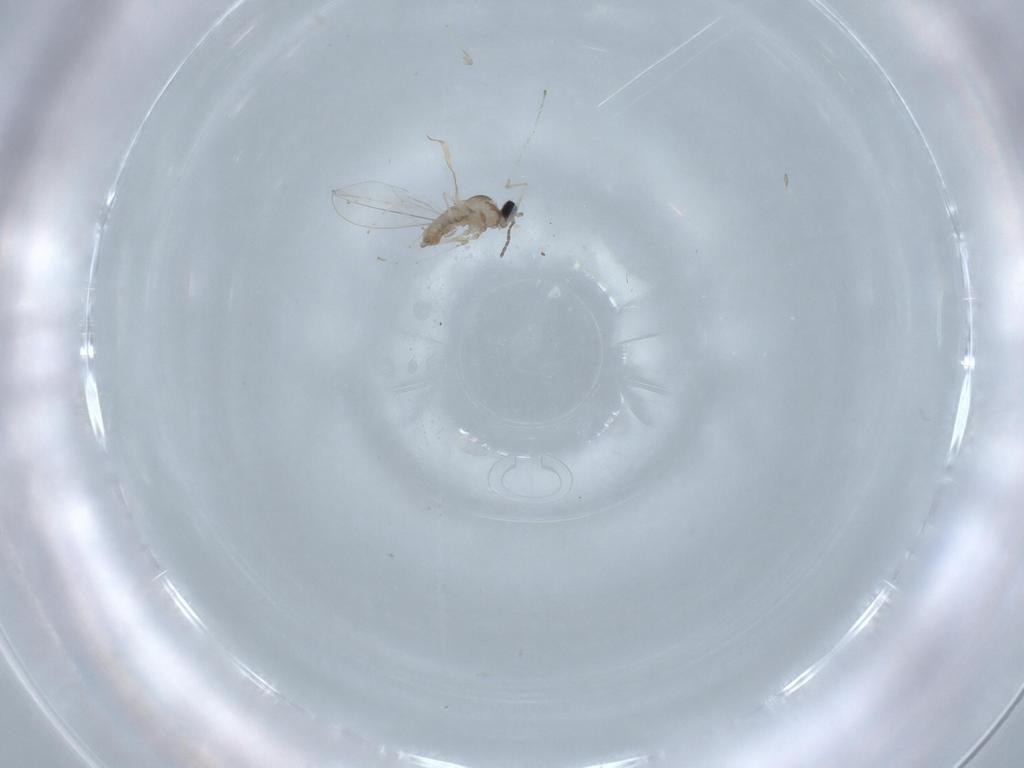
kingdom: Animalia
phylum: Arthropoda
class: Insecta
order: Diptera
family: Cecidomyiidae
